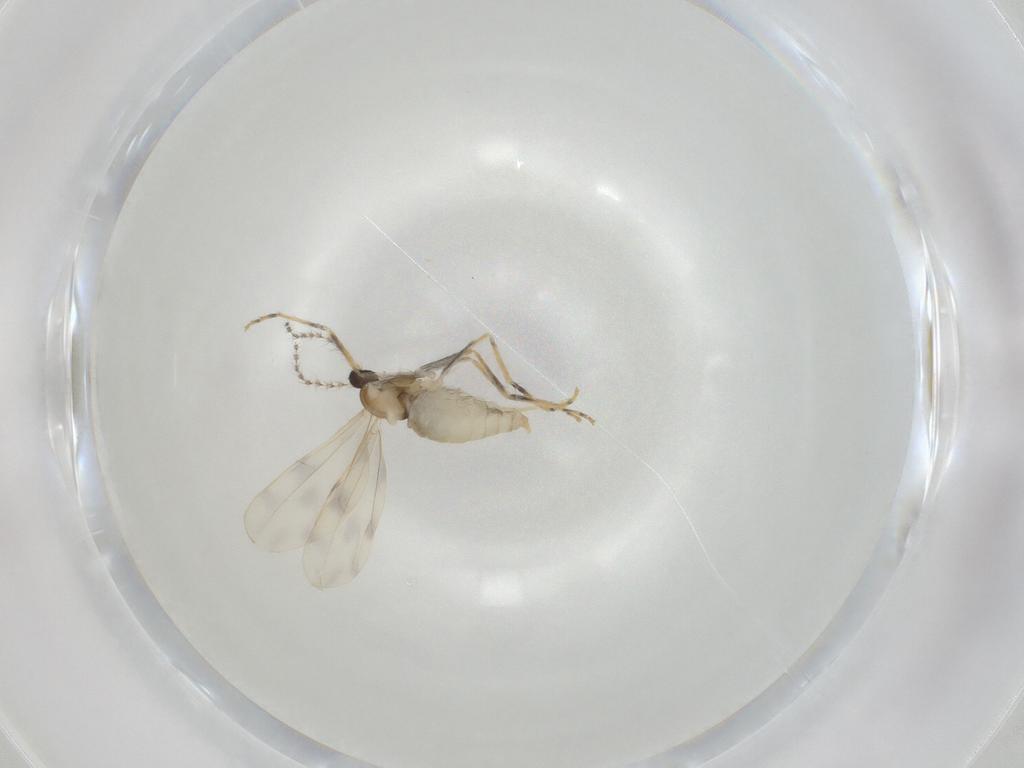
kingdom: Animalia
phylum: Arthropoda
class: Insecta
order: Diptera
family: Cecidomyiidae
